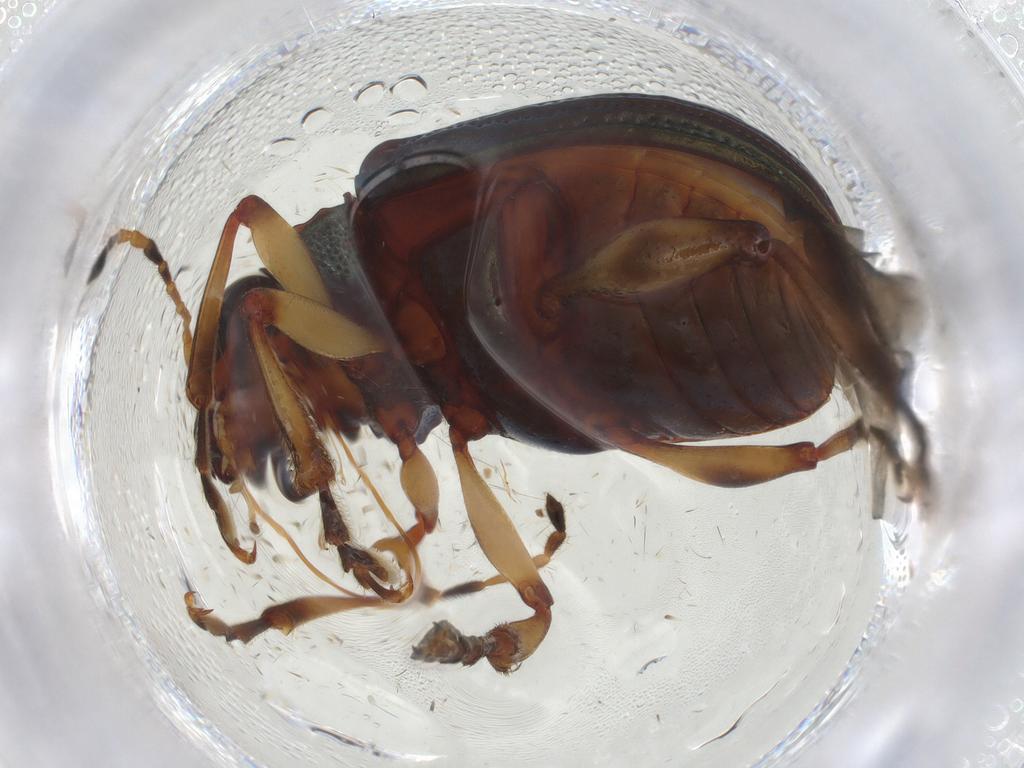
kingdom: Animalia
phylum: Arthropoda
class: Insecta
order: Coleoptera
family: Chrysomelidae
